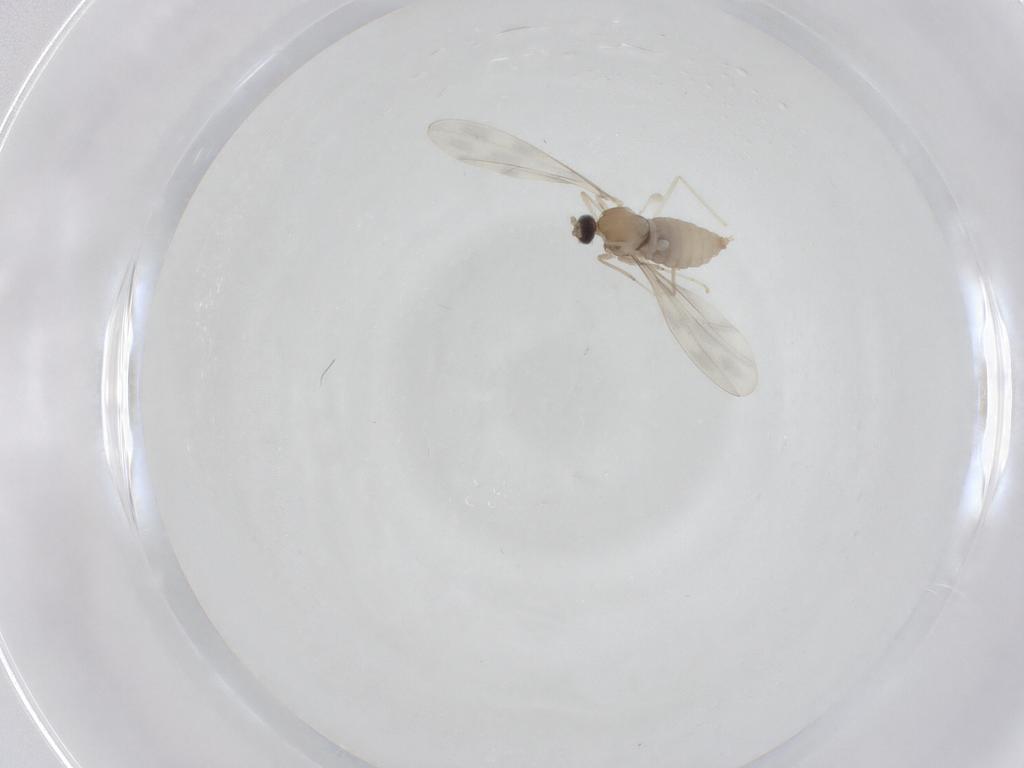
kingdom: Animalia
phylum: Arthropoda
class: Insecta
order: Diptera
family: Cecidomyiidae
